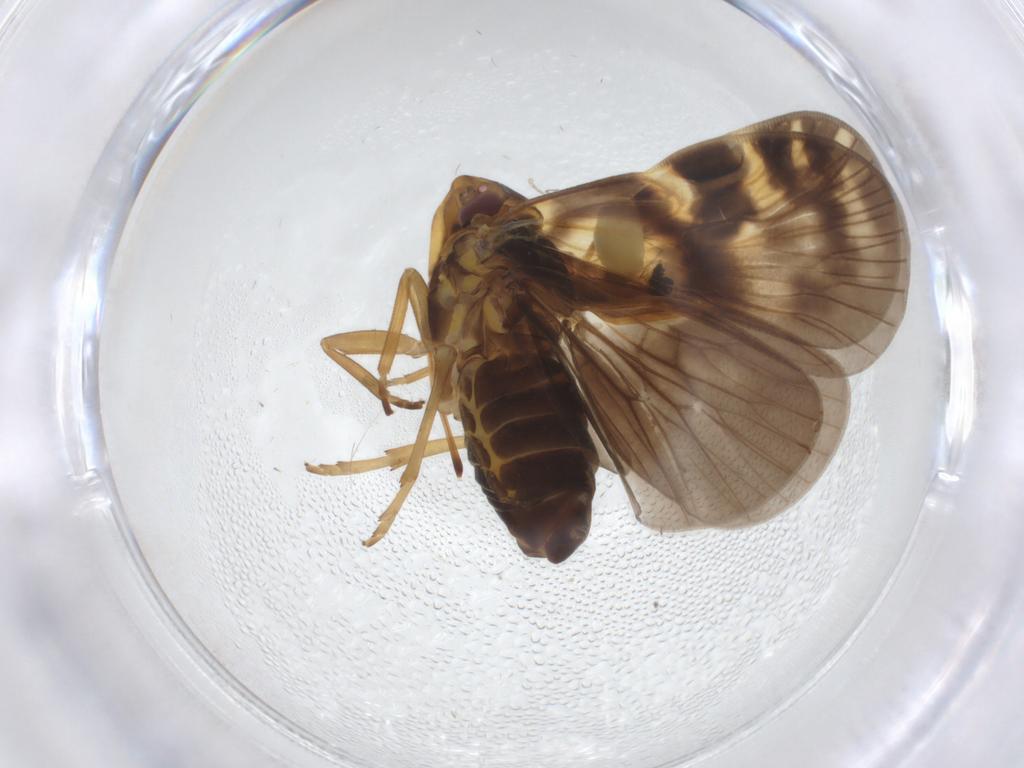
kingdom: Animalia
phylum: Arthropoda
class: Insecta
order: Hemiptera
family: Cixiidae
